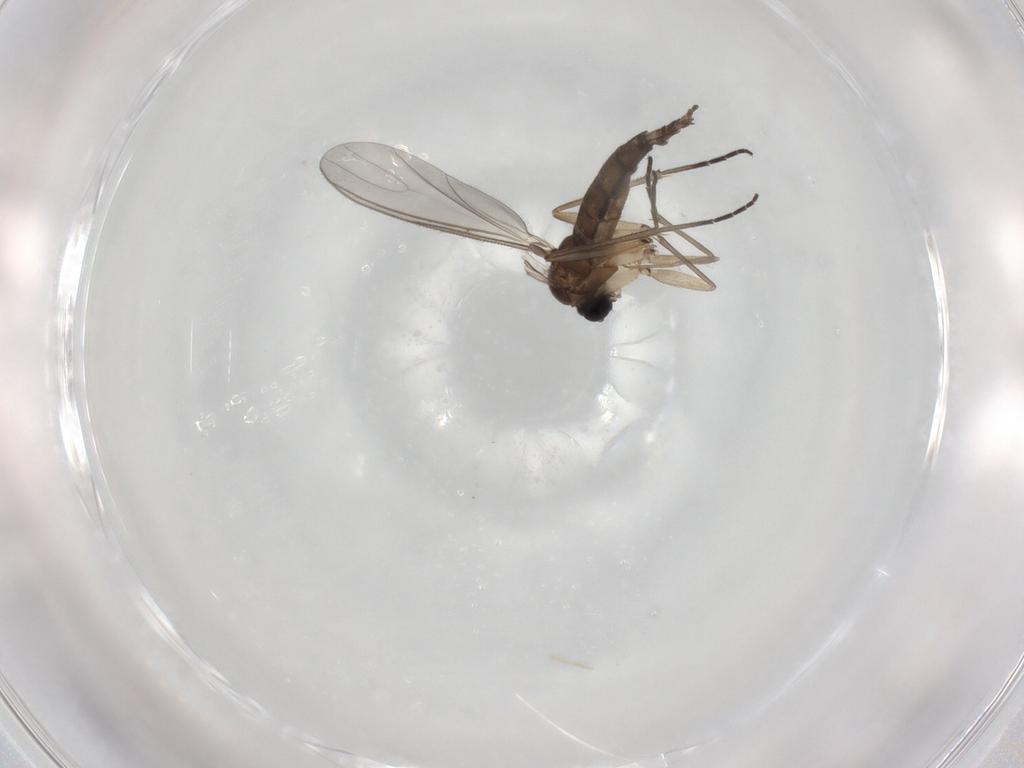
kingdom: Animalia
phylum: Arthropoda
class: Insecta
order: Diptera
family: Sciaridae
